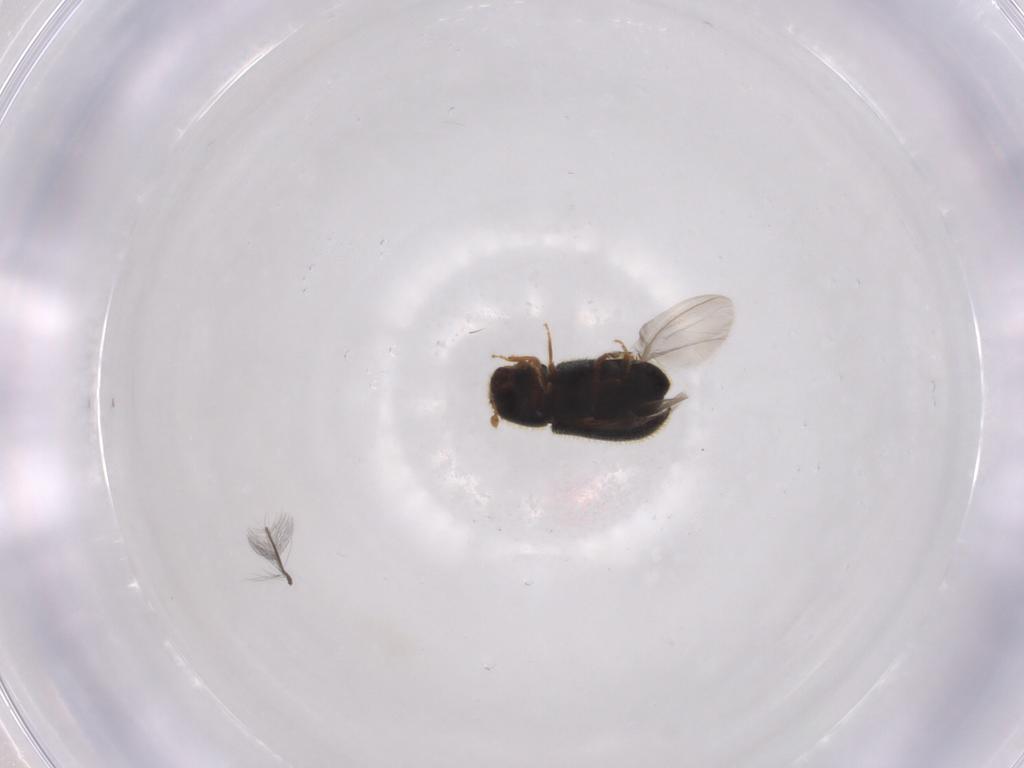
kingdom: Animalia
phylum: Arthropoda
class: Insecta
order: Coleoptera
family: Curculionidae
